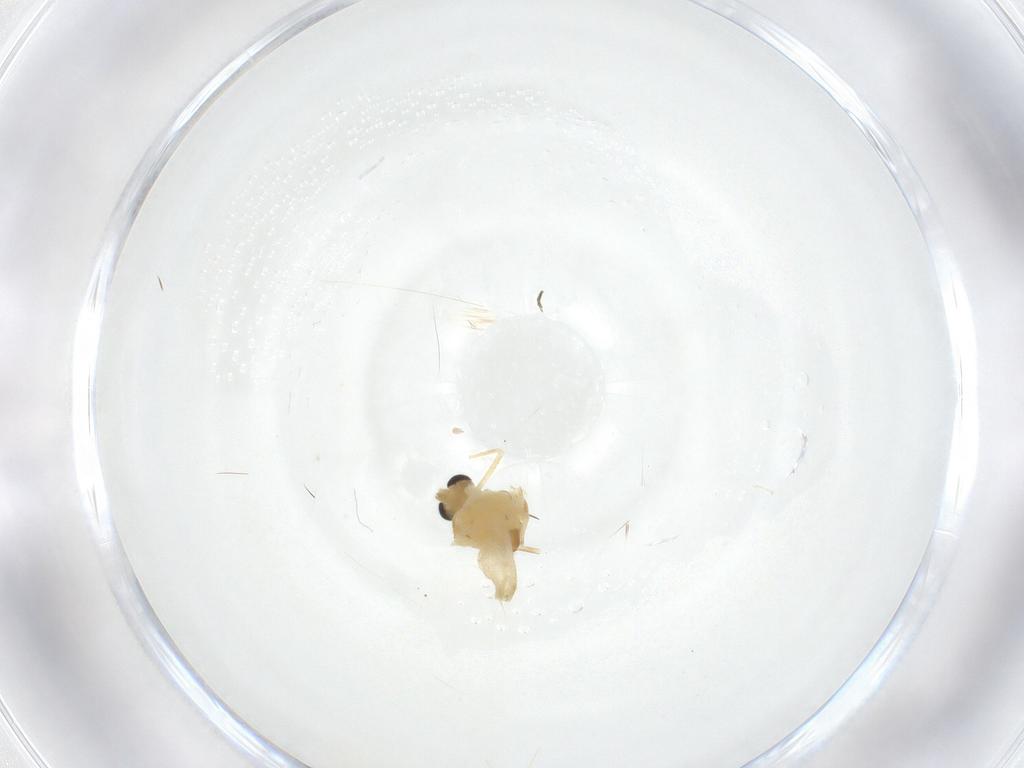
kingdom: Animalia
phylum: Arthropoda
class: Insecta
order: Diptera
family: Chironomidae
